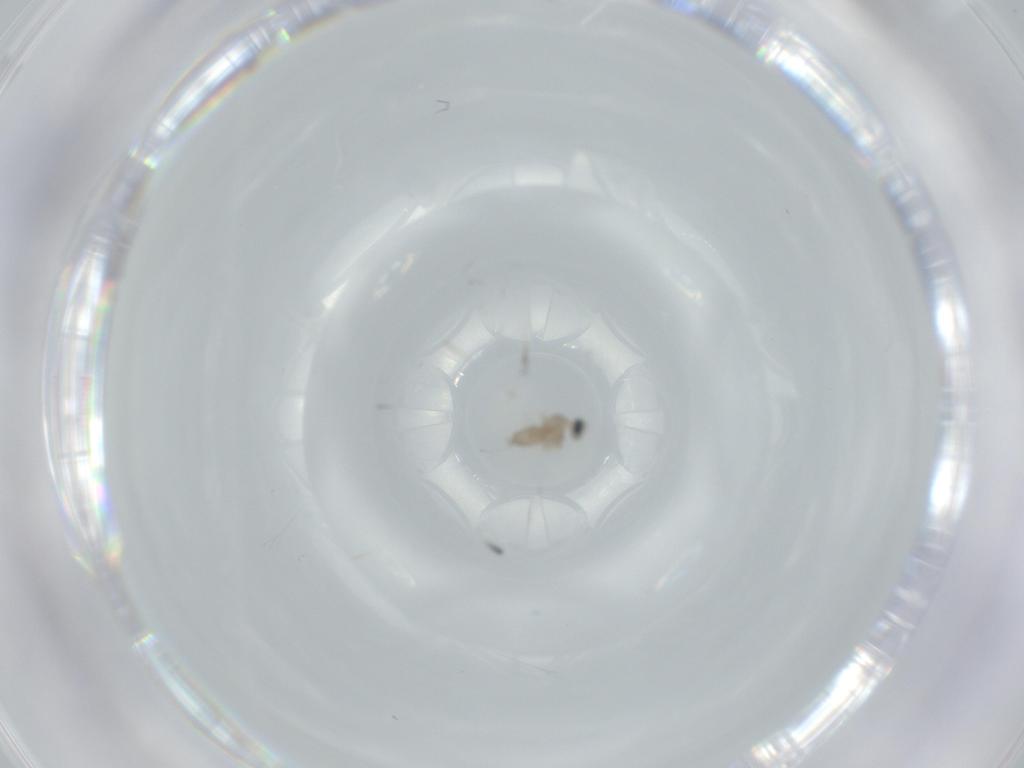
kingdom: Animalia
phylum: Arthropoda
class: Insecta
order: Diptera
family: Cecidomyiidae
